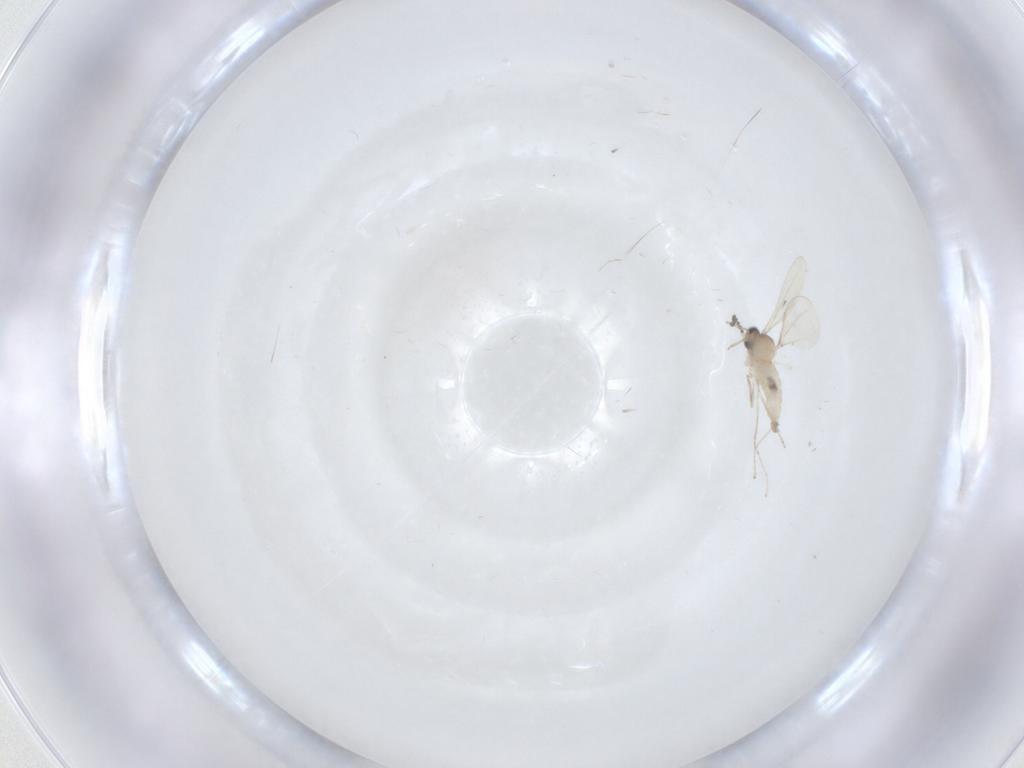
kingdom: Animalia
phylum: Arthropoda
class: Insecta
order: Diptera
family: Cecidomyiidae
